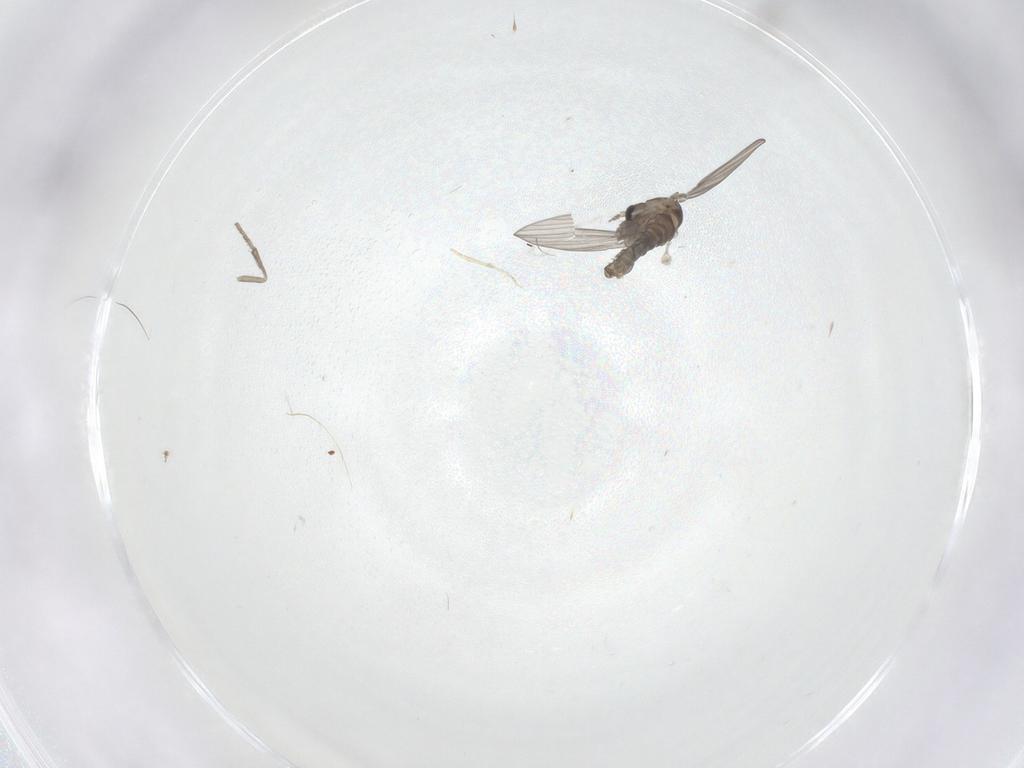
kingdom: Animalia
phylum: Arthropoda
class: Insecta
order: Diptera
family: Psychodidae
